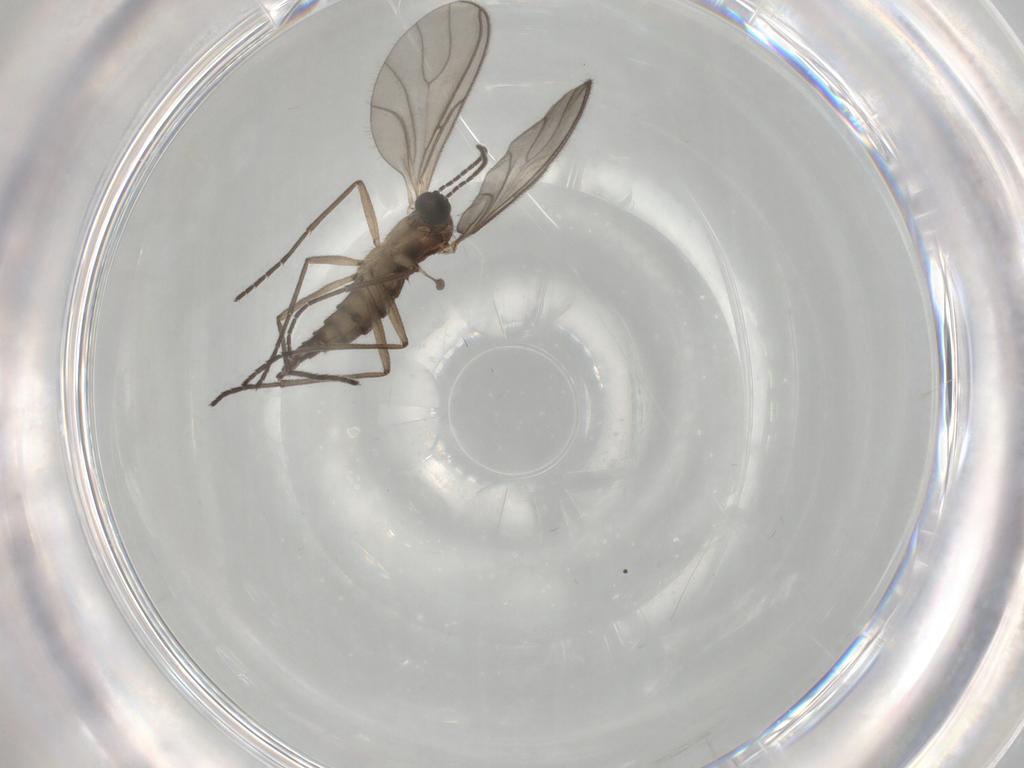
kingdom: Animalia
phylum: Arthropoda
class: Insecta
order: Diptera
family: Sciaridae
